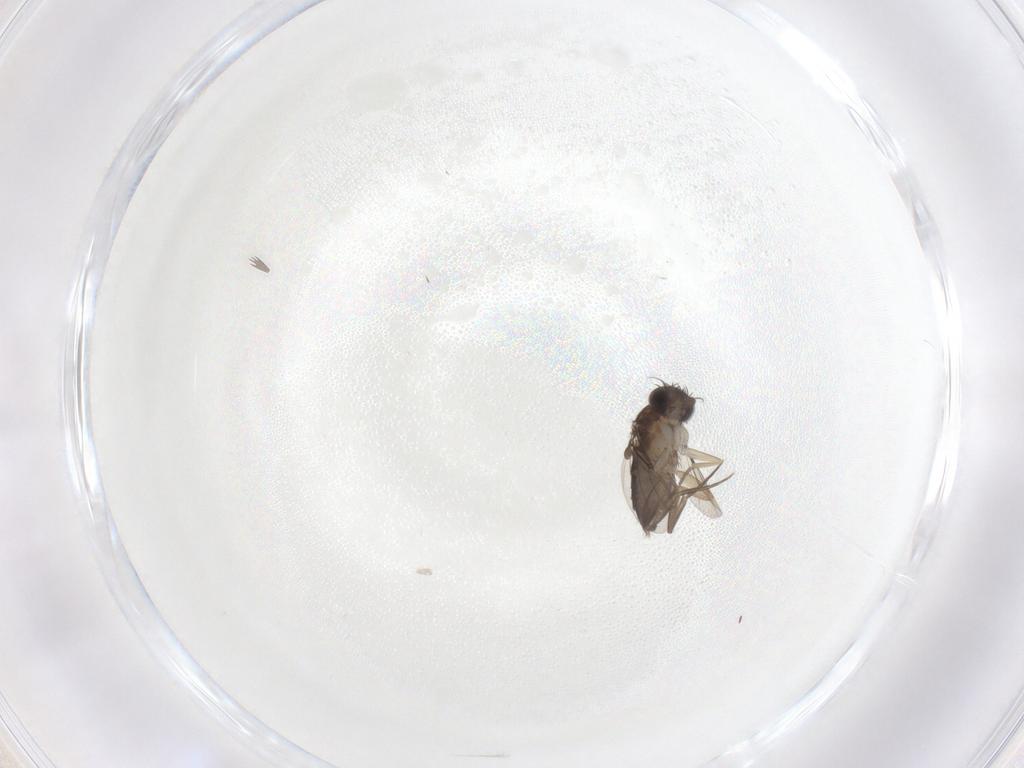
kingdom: Animalia
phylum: Arthropoda
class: Insecta
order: Diptera
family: Phoridae
